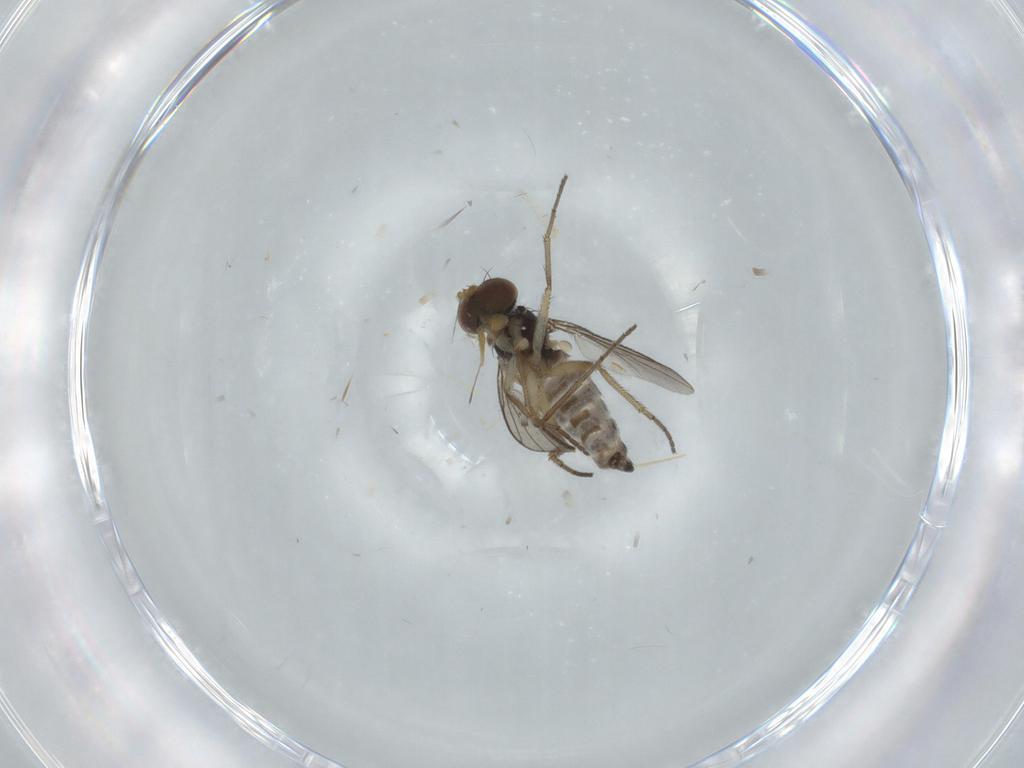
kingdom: Animalia
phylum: Arthropoda
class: Insecta
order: Diptera
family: Dolichopodidae
